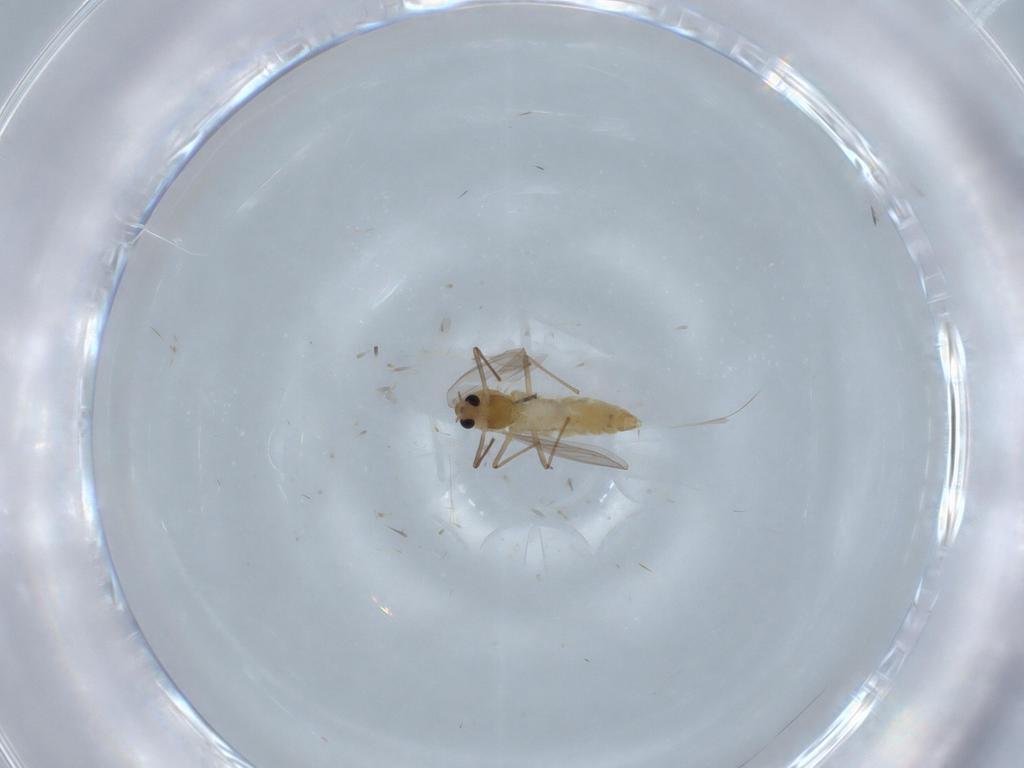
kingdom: Animalia
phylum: Arthropoda
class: Insecta
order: Diptera
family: Chironomidae
